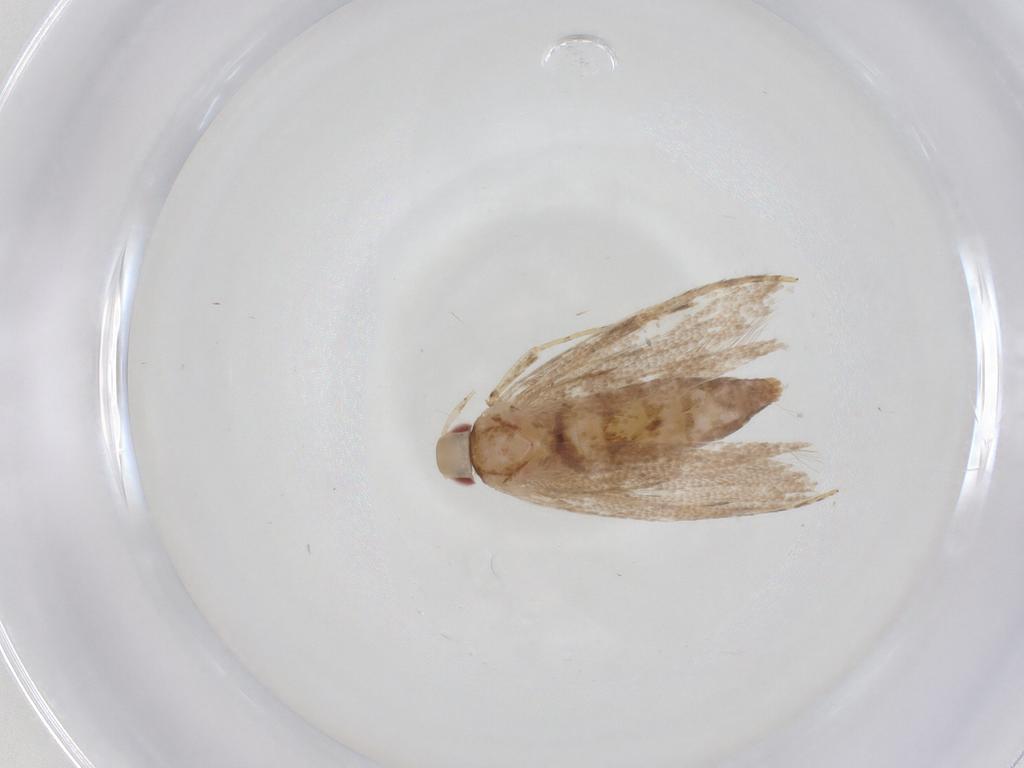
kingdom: Animalia
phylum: Arthropoda
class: Insecta
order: Lepidoptera
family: Cosmopterigidae
